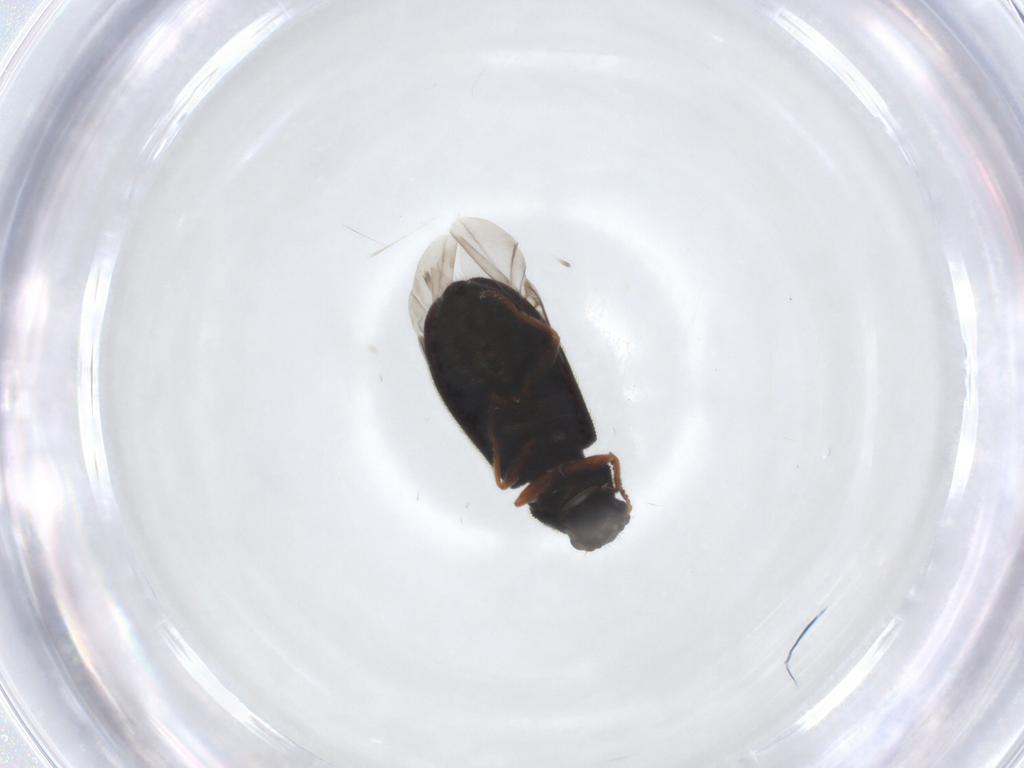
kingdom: Animalia
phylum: Arthropoda
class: Insecta
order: Coleoptera
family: Melyridae
